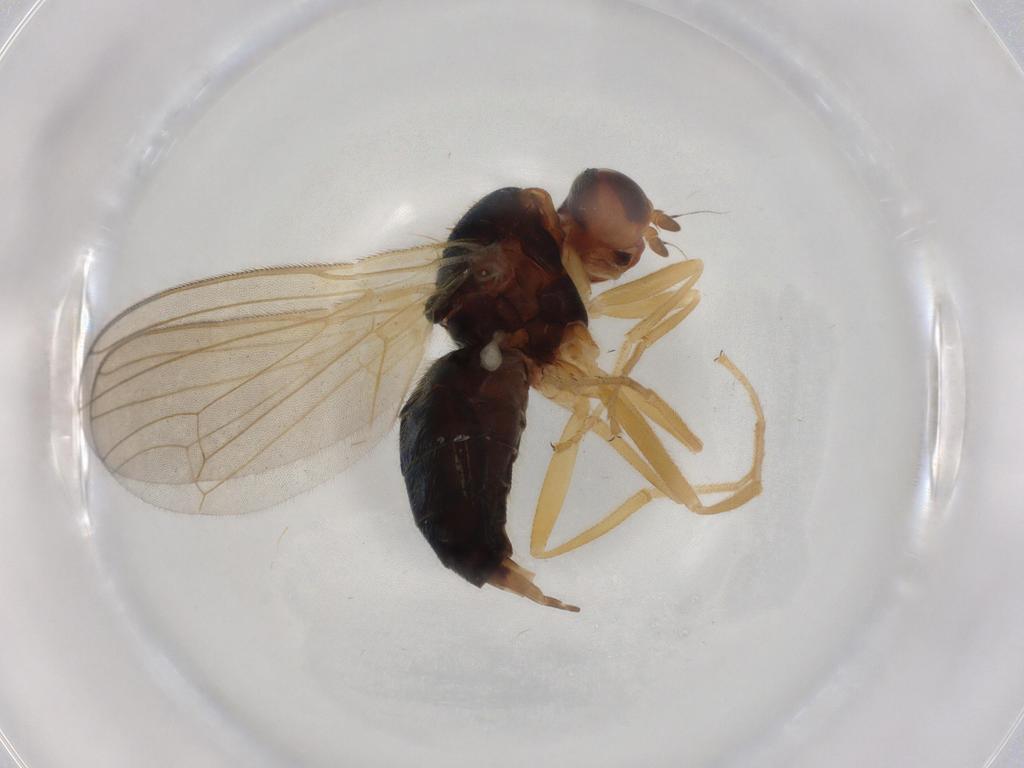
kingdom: Animalia
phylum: Arthropoda
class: Insecta
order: Diptera
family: Hybotidae
